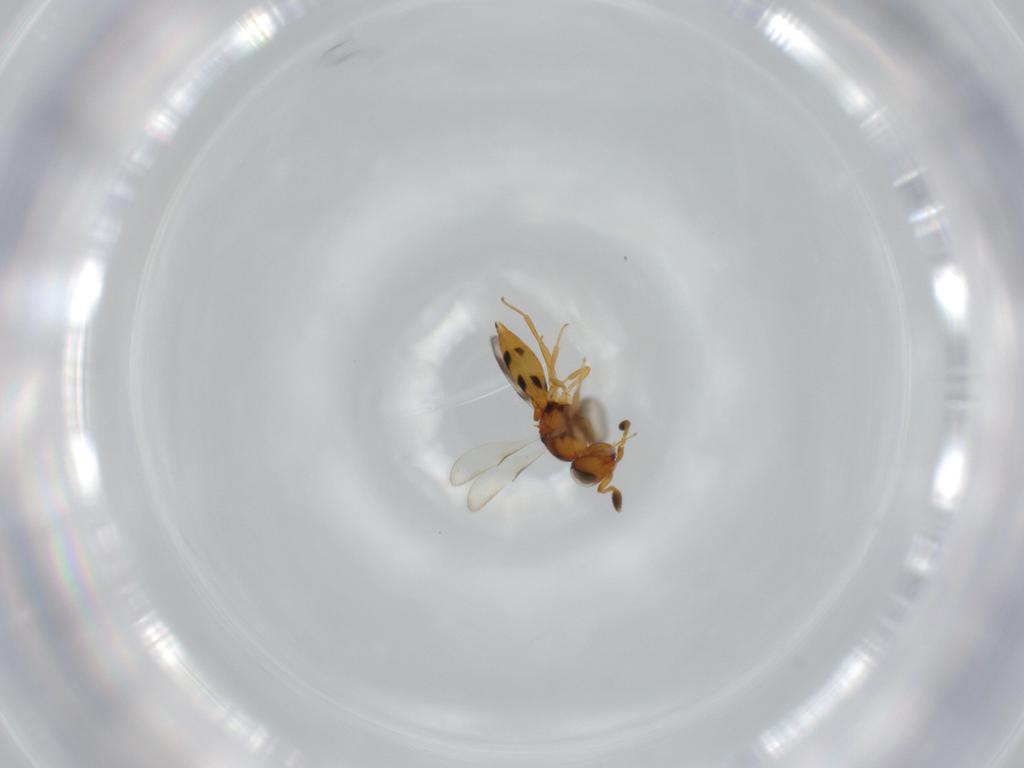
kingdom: Animalia
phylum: Arthropoda
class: Insecta
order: Hymenoptera
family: Scelionidae
